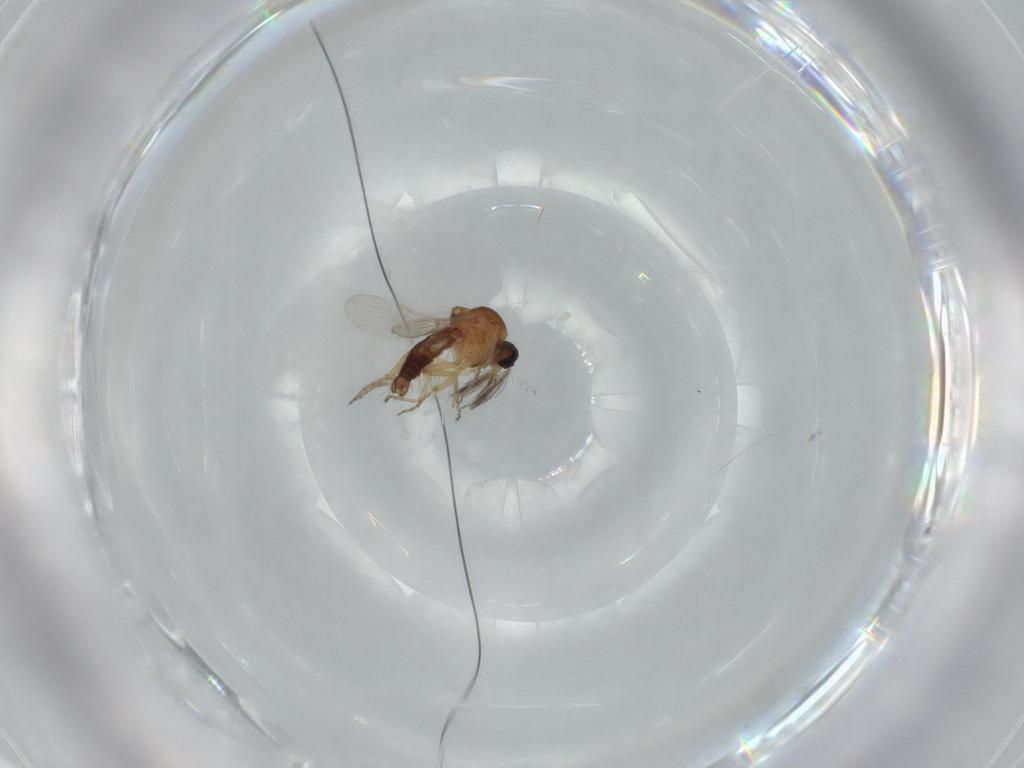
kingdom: Animalia
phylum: Arthropoda
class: Insecta
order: Diptera
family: Ceratopogonidae
